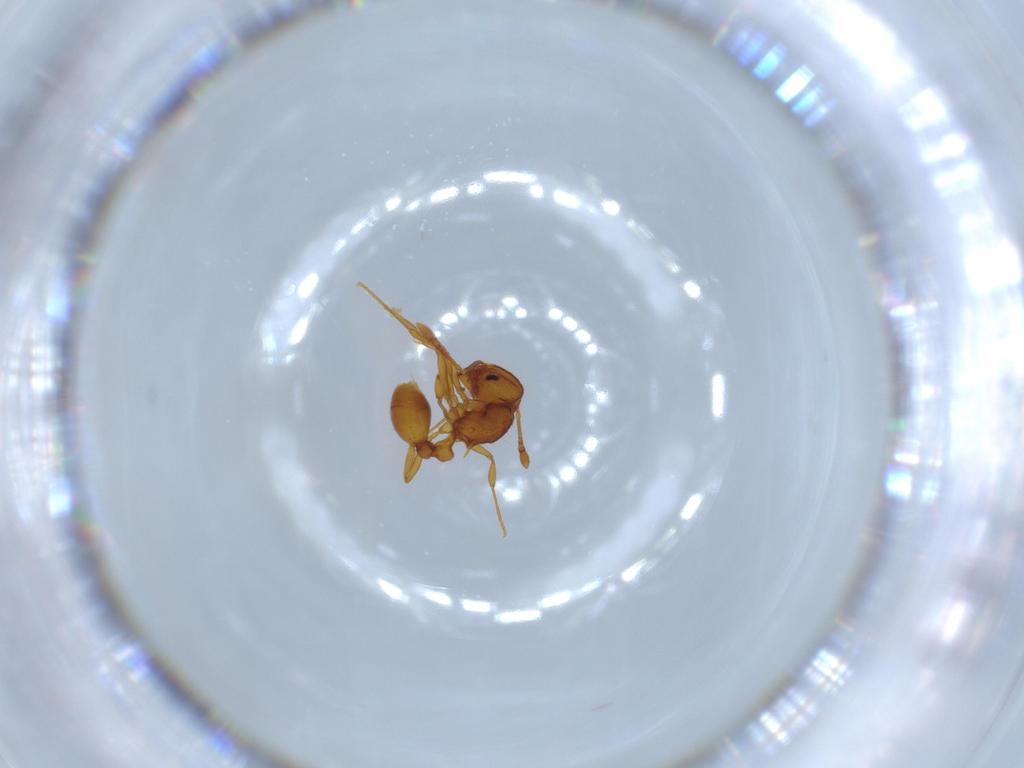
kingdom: Animalia
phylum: Arthropoda
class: Insecta
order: Hymenoptera
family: Formicidae
